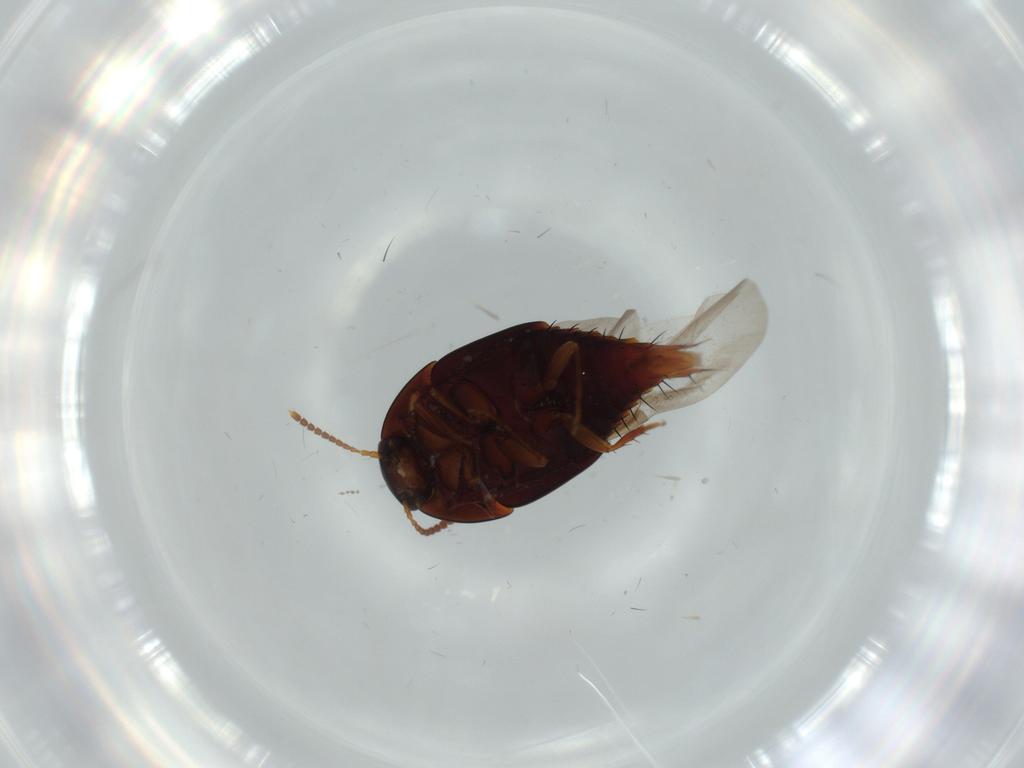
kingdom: Animalia
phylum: Arthropoda
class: Insecta
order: Coleoptera
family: Staphylinidae
